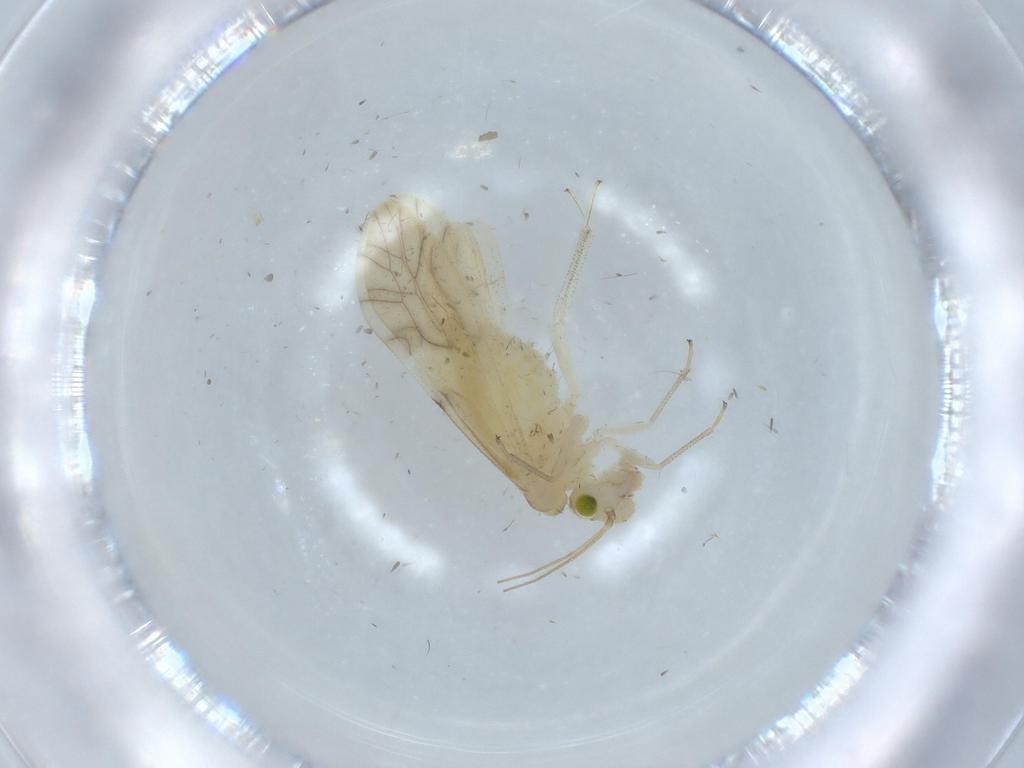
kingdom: Animalia
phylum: Arthropoda
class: Insecta
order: Psocodea
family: Caeciliusidae
